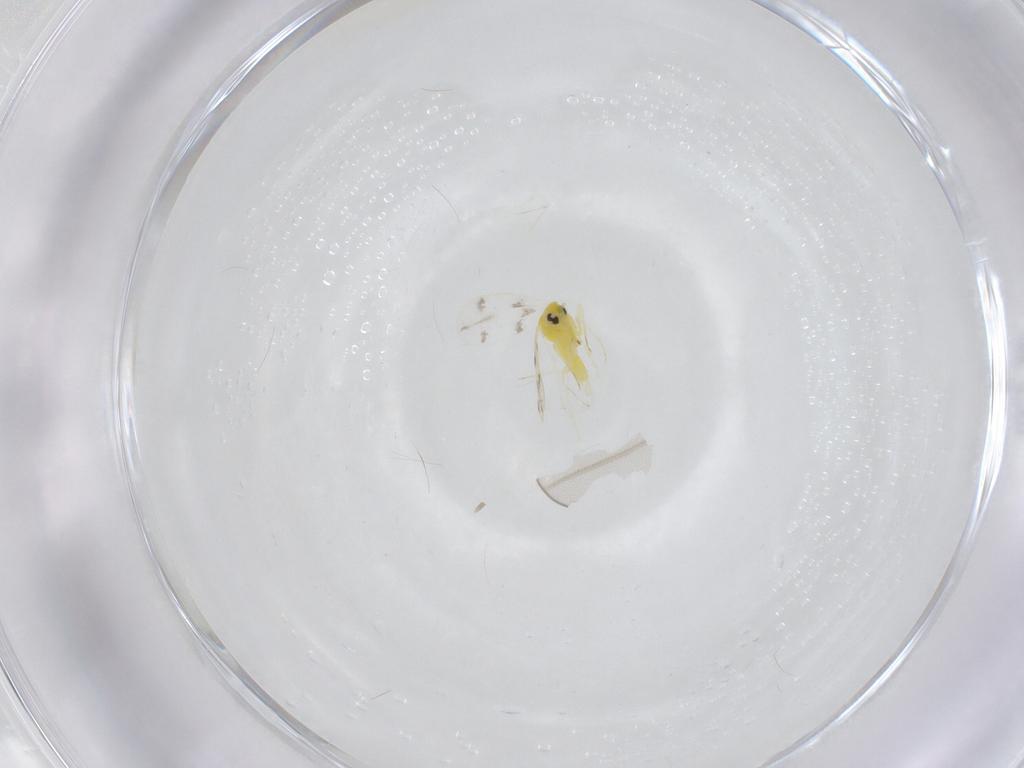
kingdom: Animalia
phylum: Arthropoda
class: Insecta
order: Hemiptera
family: Aleyrodidae
